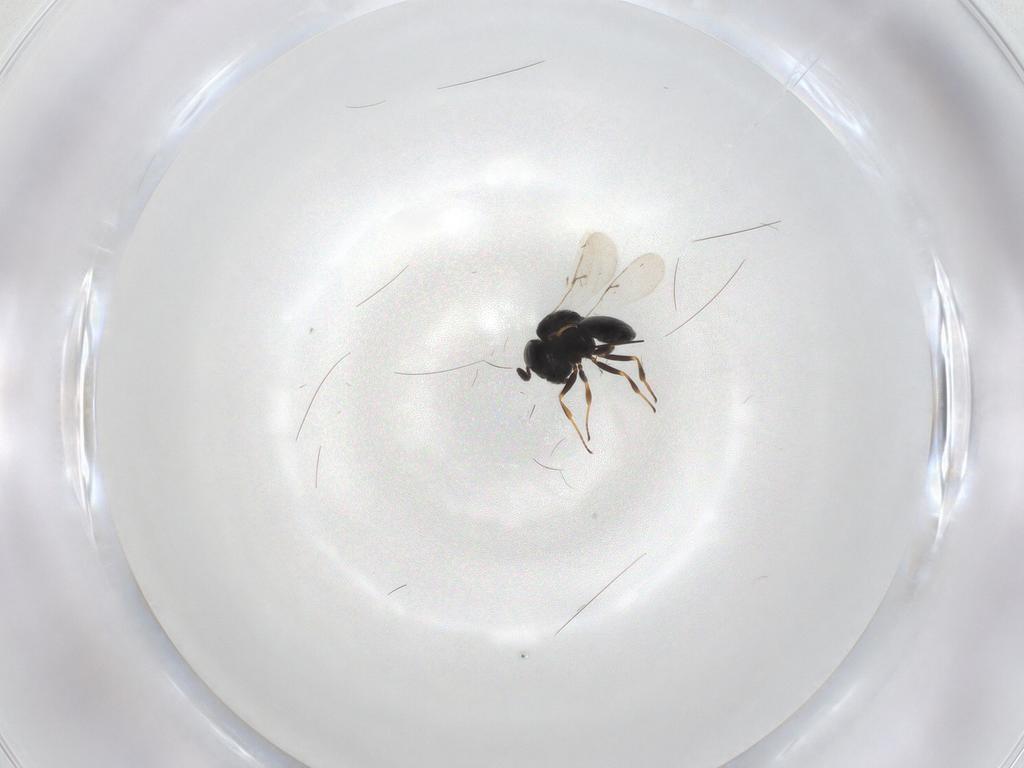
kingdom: Animalia
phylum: Arthropoda
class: Insecta
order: Hymenoptera
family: Scelionidae
